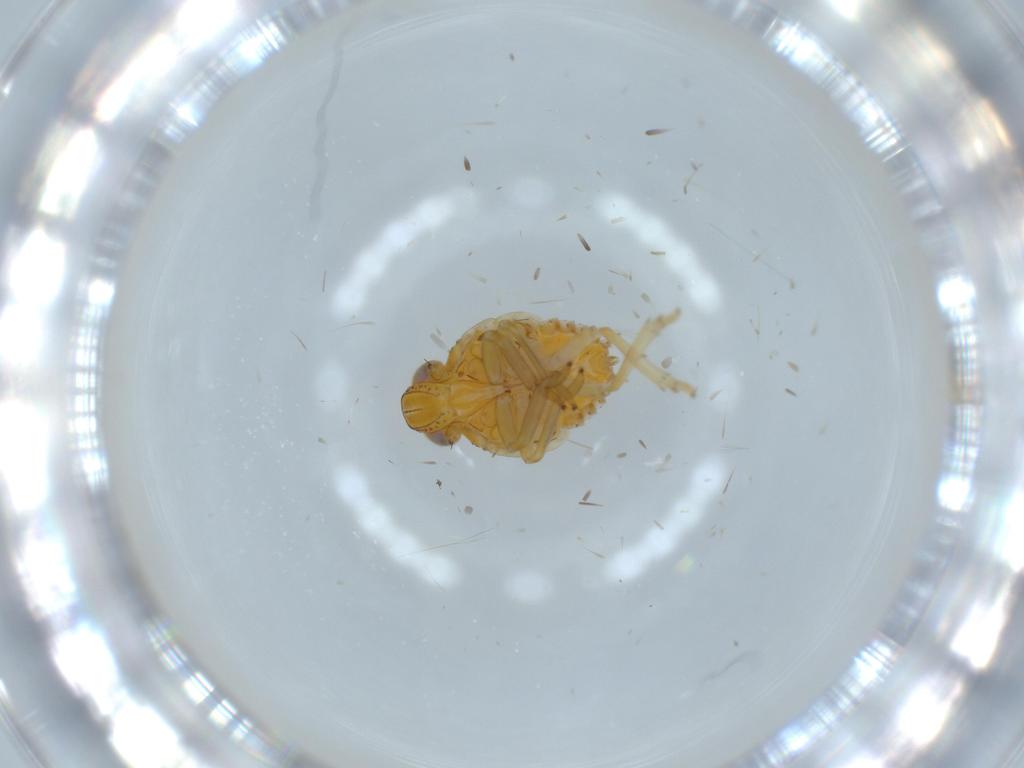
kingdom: Animalia
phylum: Arthropoda
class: Insecta
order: Hemiptera
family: Issidae
